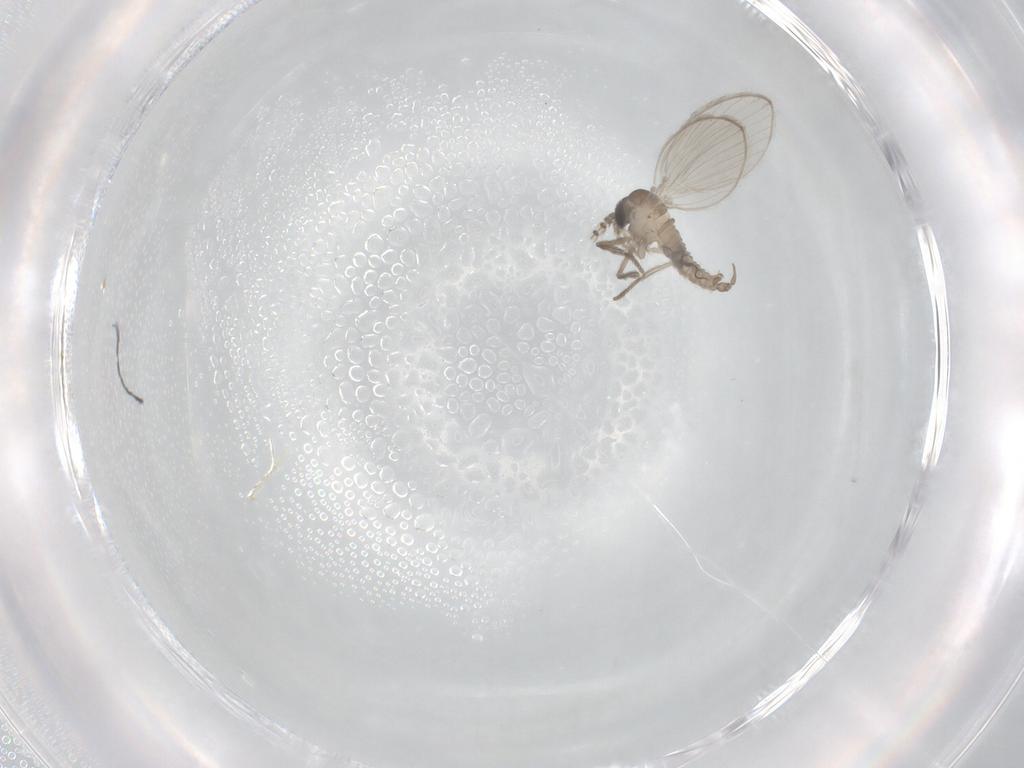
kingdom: Animalia
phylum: Arthropoda
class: Insecta
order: Diptera
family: Psychodidae
